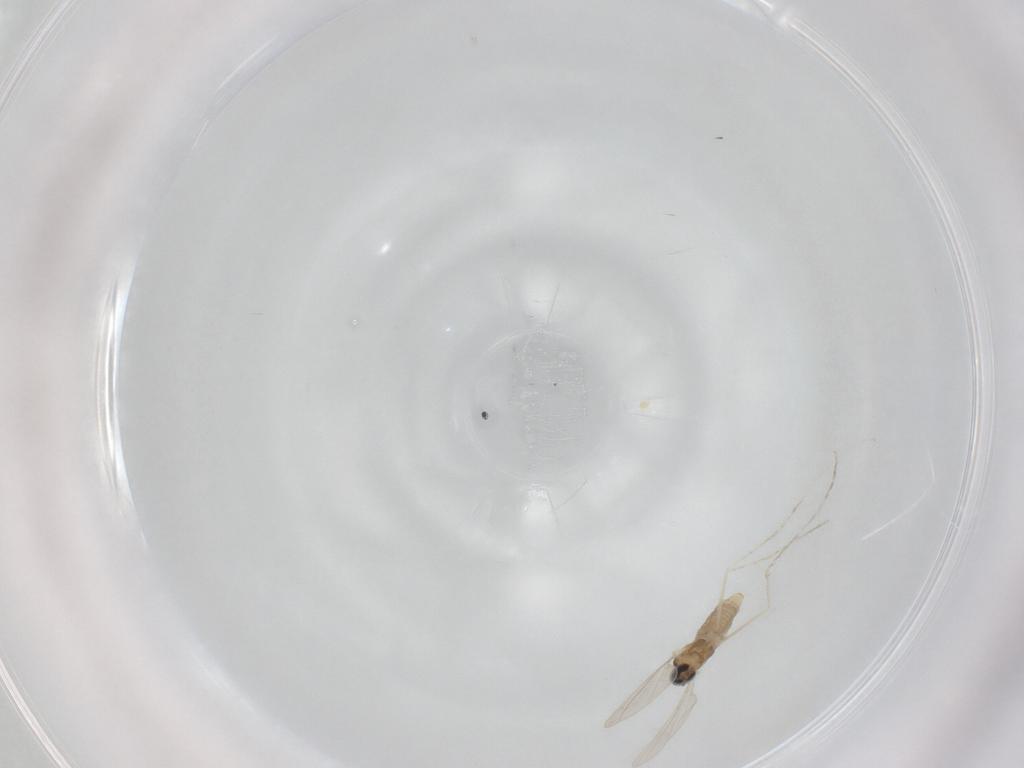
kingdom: Animalia
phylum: Arthropoda
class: Insecta
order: Diptera
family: Cecidomyiidae
